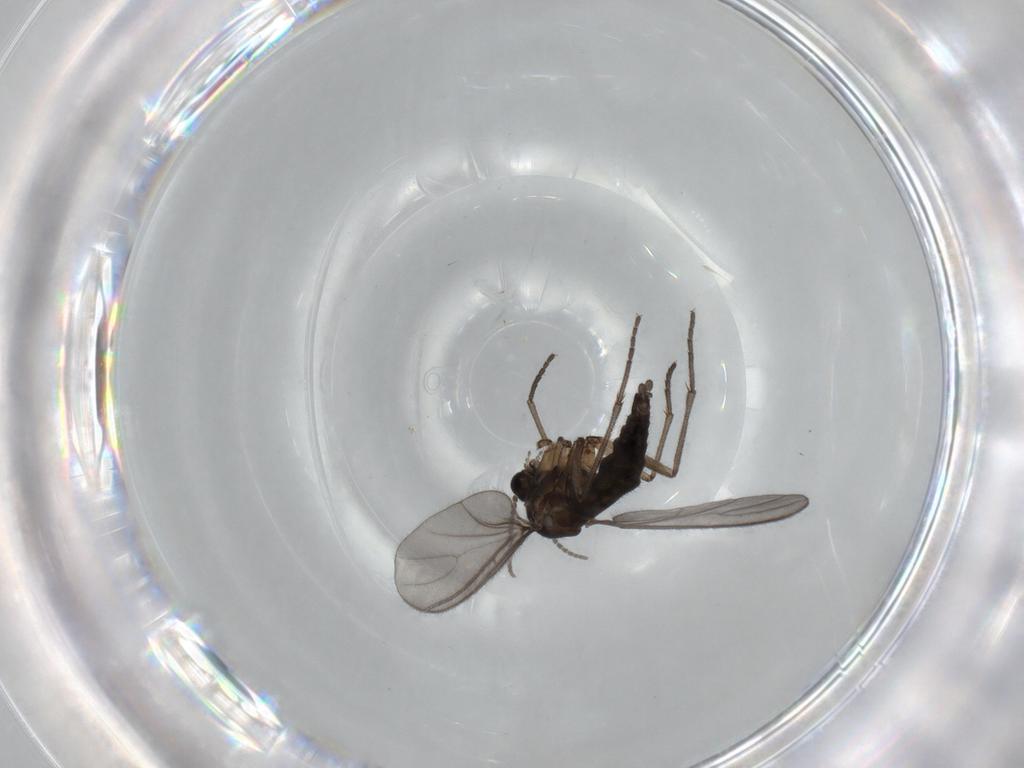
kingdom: Animalia
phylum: Arthropoda
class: Insecta
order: Diptera
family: Sciaridae
